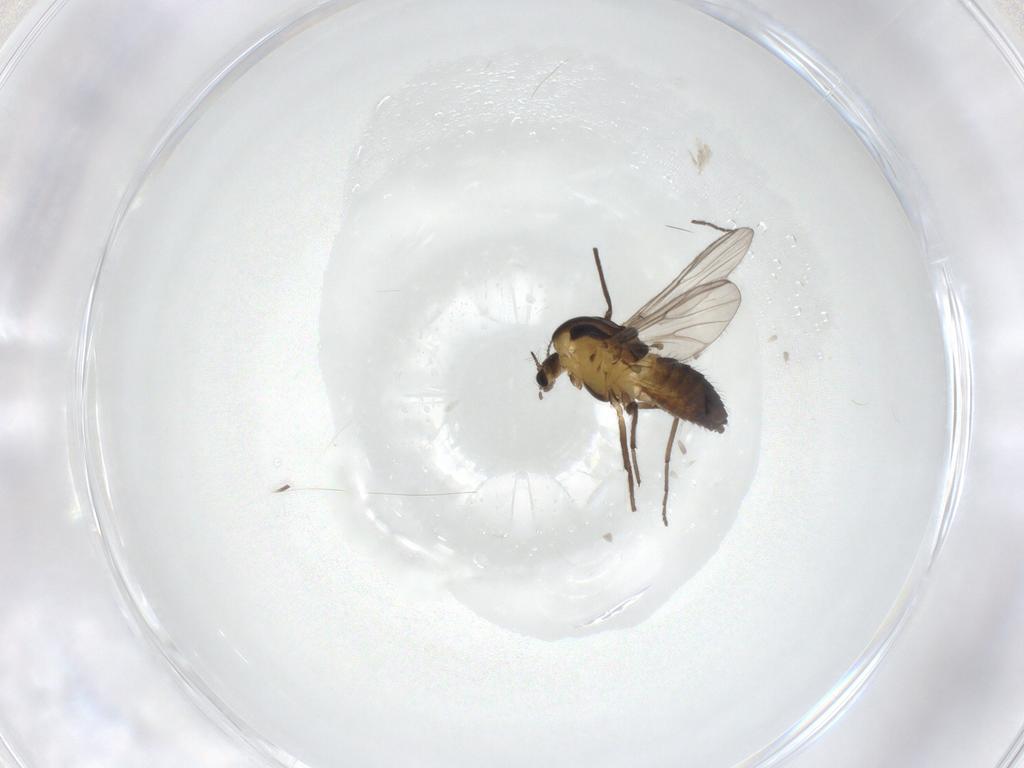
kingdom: Animalia
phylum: Arthropoda
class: Insecta
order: Diptera
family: Chironomidae
